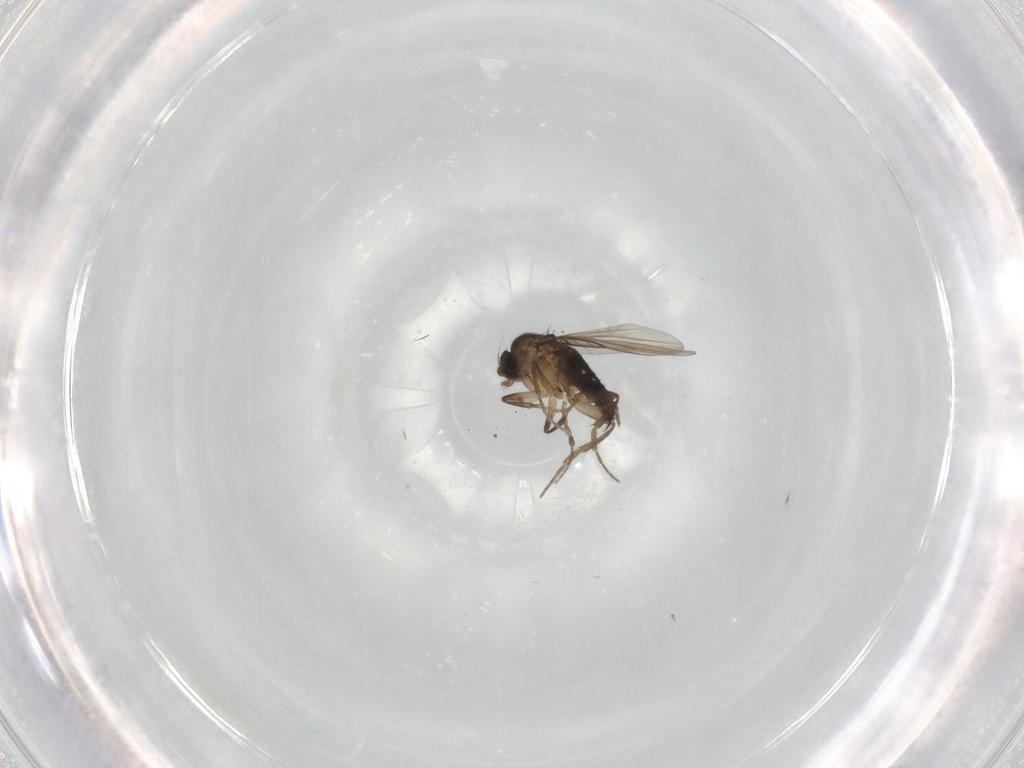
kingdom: Animalia
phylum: Arthropoda
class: Insecta
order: Diptera
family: Phoridae
